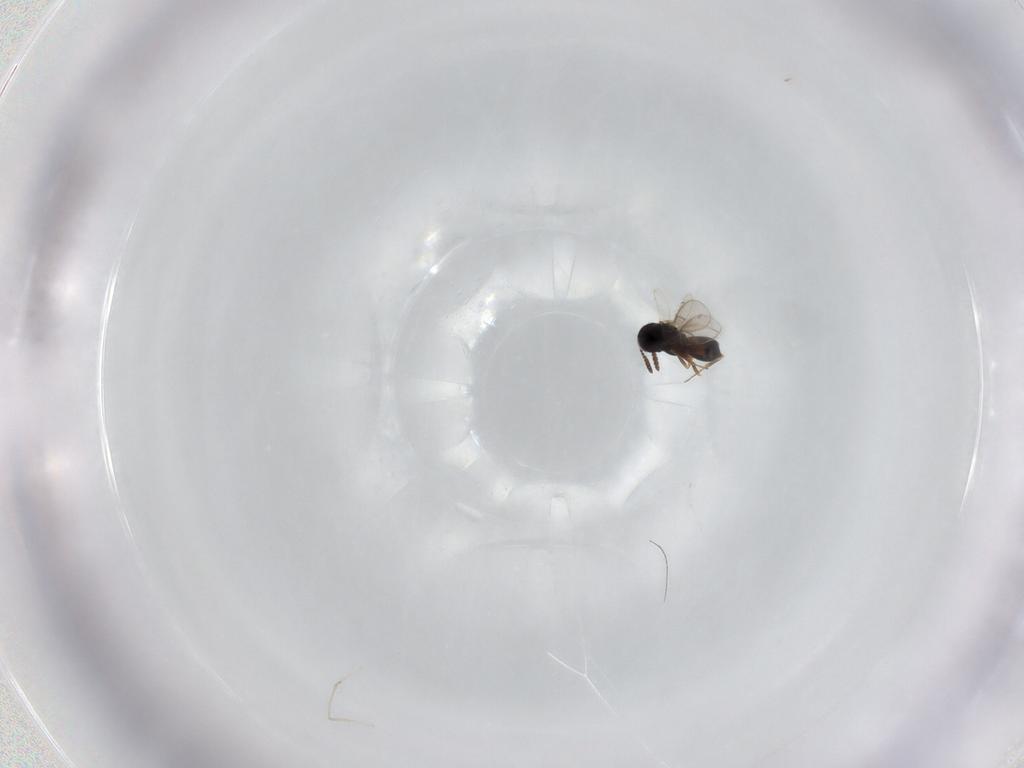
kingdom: Animalia
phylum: Arthropoda
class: Insecta
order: Hymenoptera
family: Scelionidae
